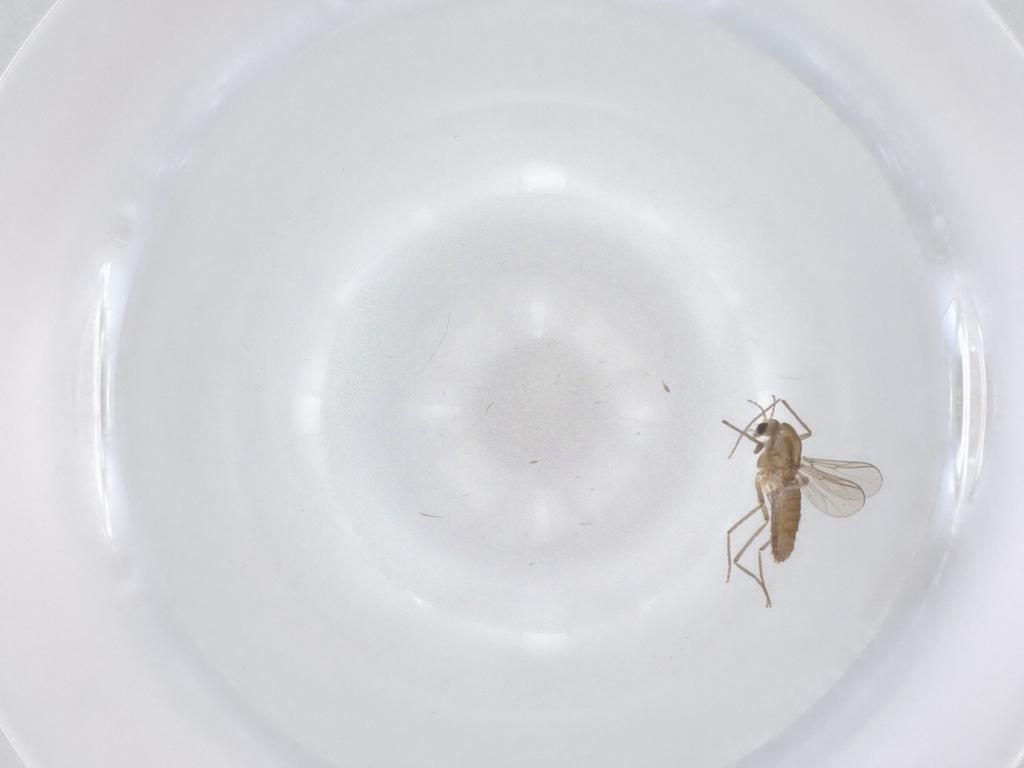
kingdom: Animalia
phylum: Arthropoda
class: Insecta
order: Diptera
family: Chironomidae
